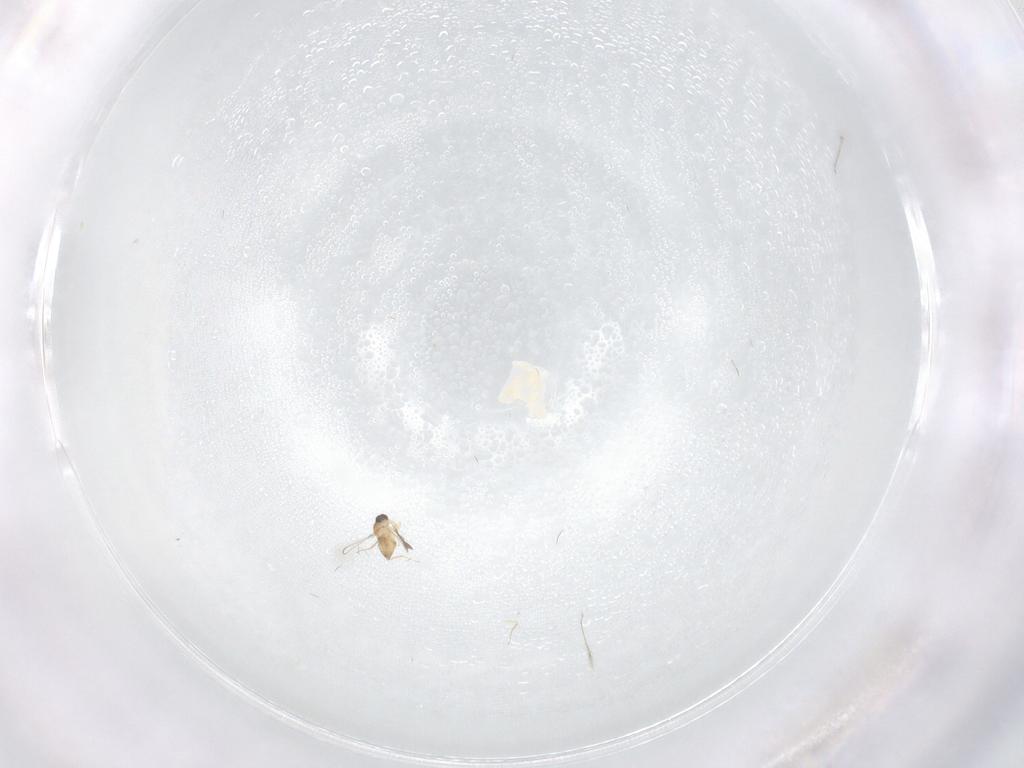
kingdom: Animalia
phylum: Arthropoda
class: Insecta
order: Hymenoptera
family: Mymaridae
